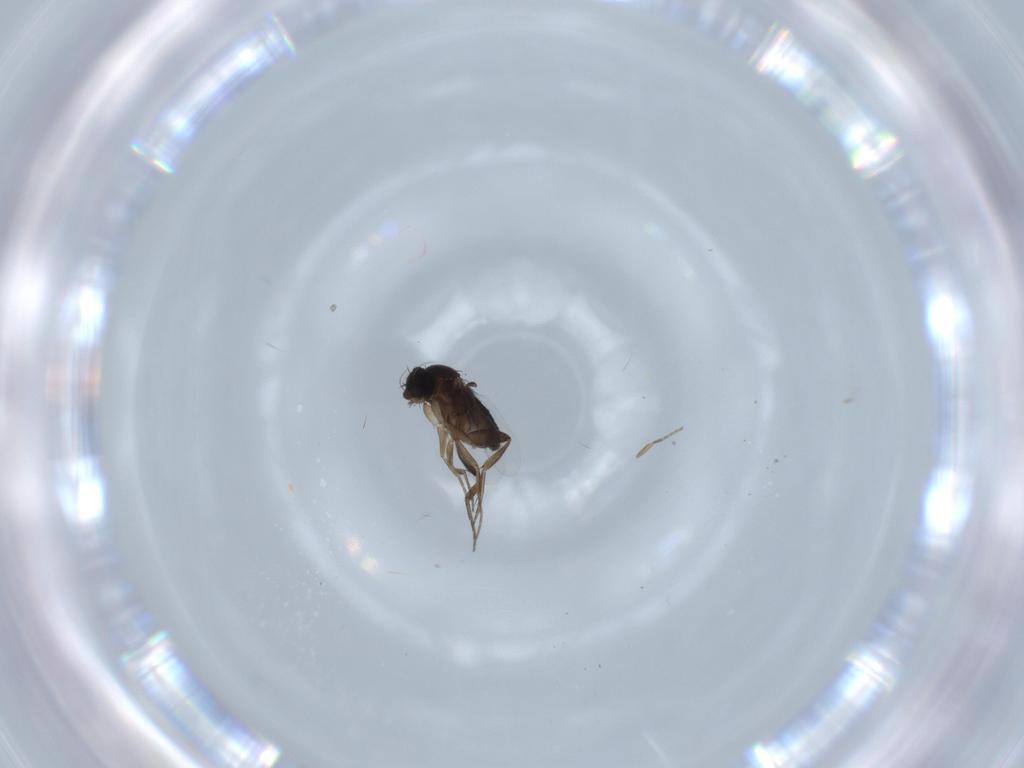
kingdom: Animalia
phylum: Arthropoda
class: Insecta
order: Diptera
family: Phoridae
